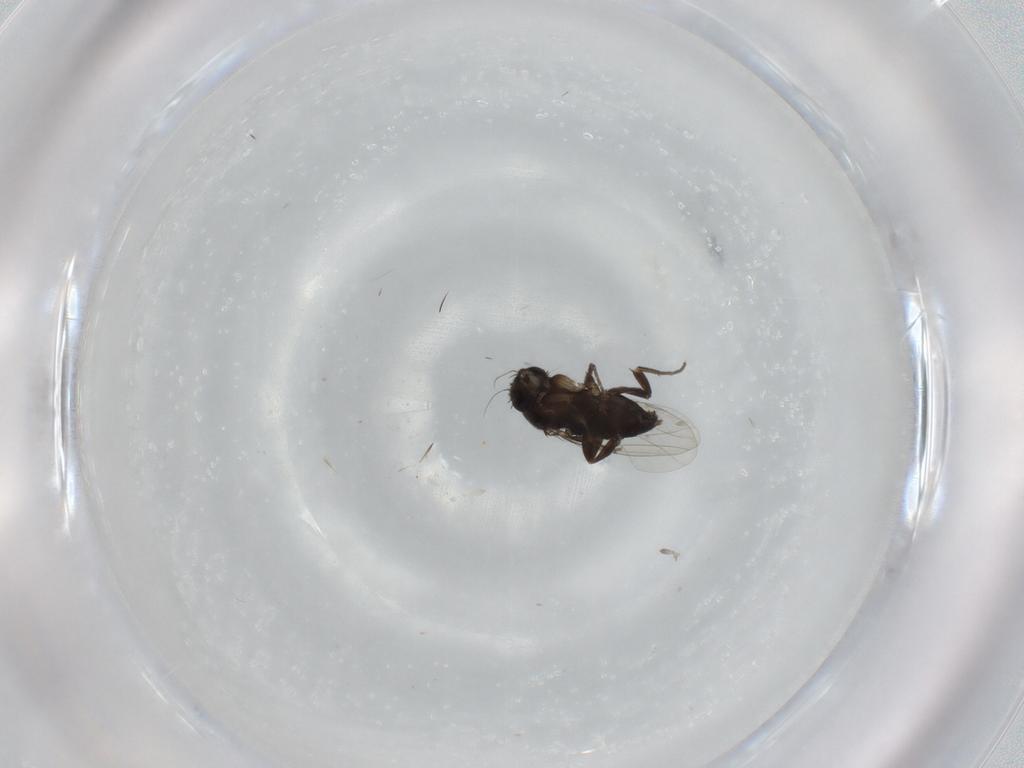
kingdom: Animalia
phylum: Arthropoda
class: Insecta
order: Diptera
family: Phoridae
